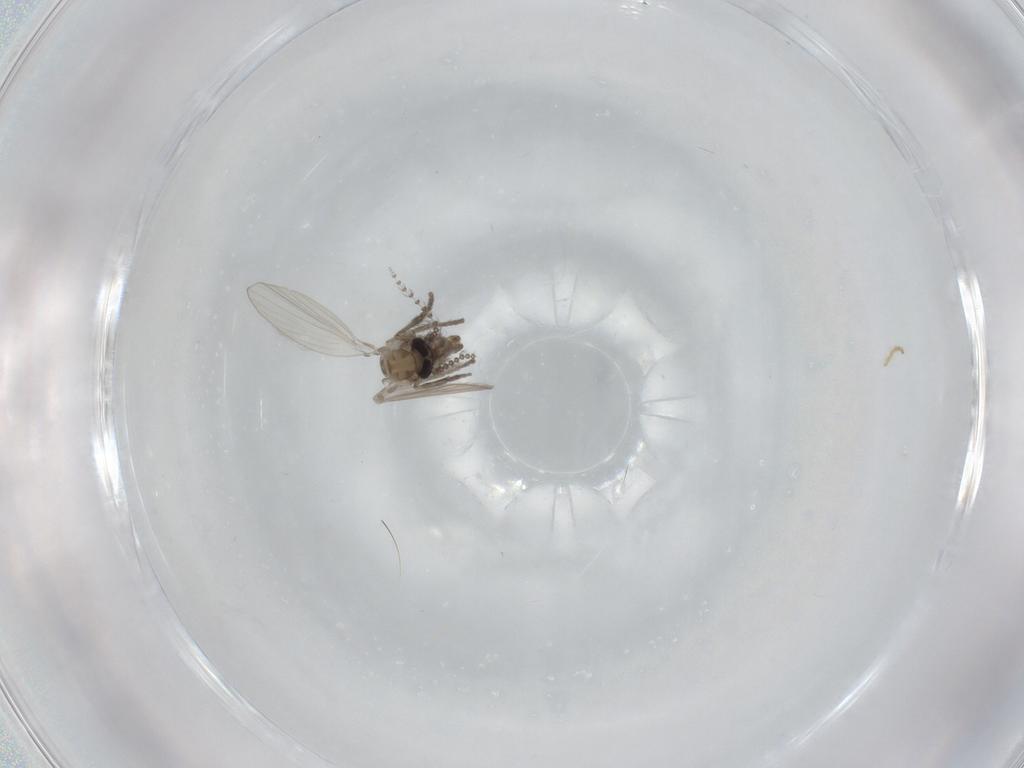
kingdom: Animalia
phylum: Arthropoda
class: Insecta
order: Diptera
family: Psychodidae
